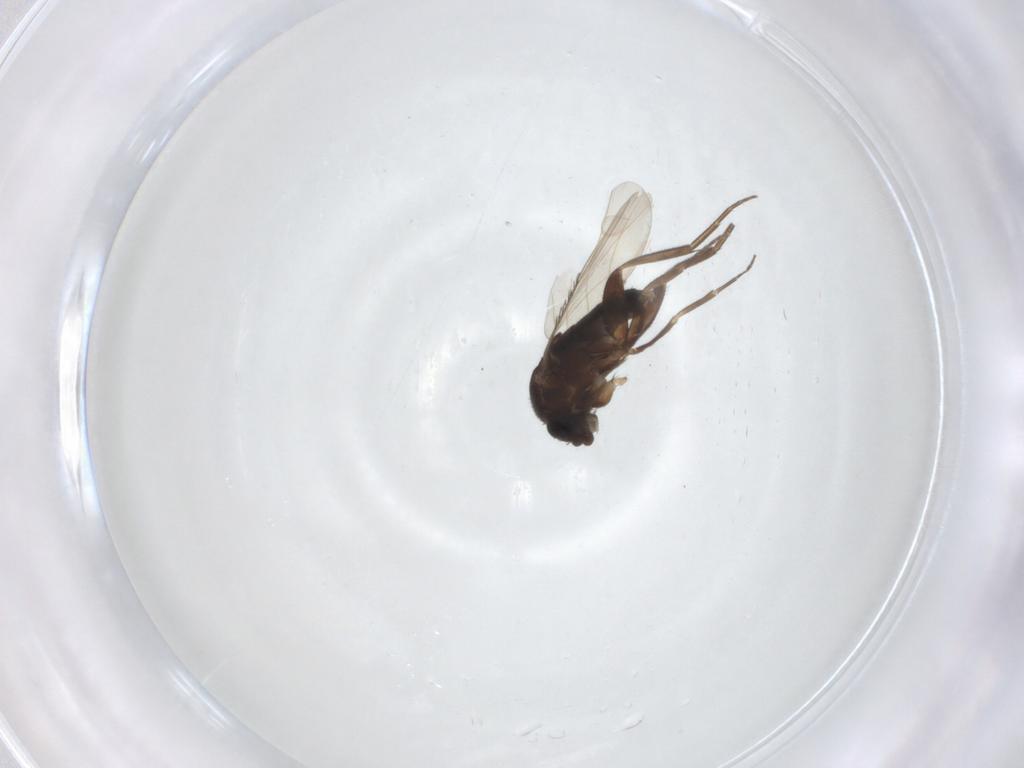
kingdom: Animalia
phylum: Arthropoda
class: Insecta
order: Diptera
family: Phoridae
